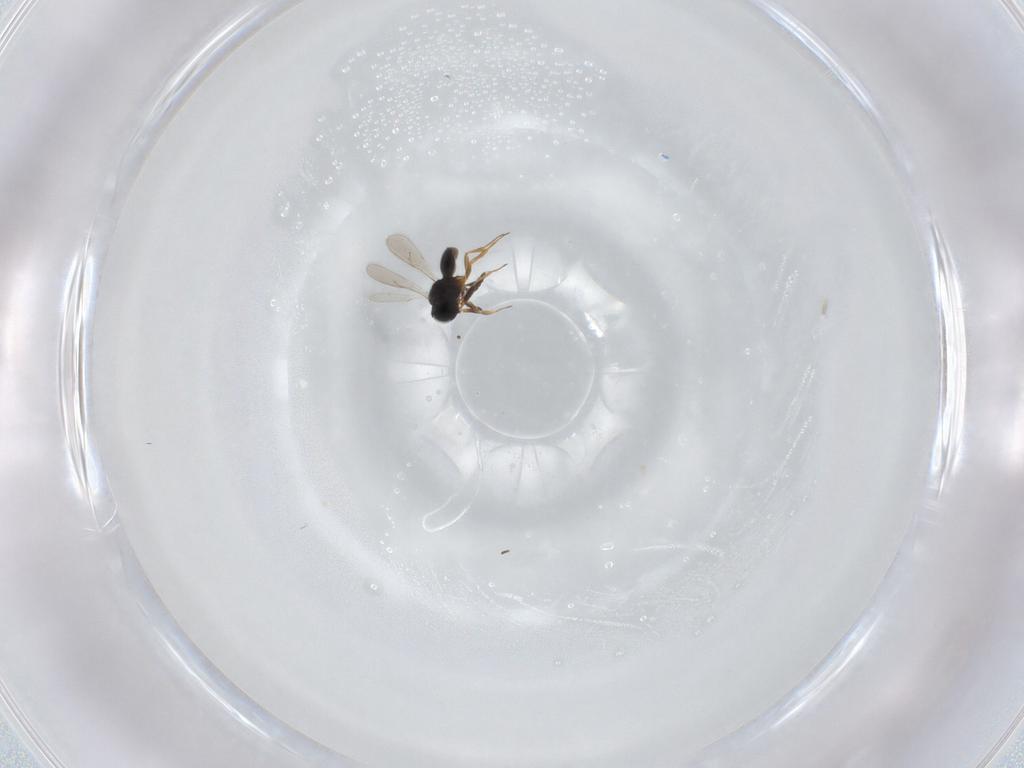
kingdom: Animalia
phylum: Arthropoda
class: Insecta
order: Hymenoptera
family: Scelionidae
